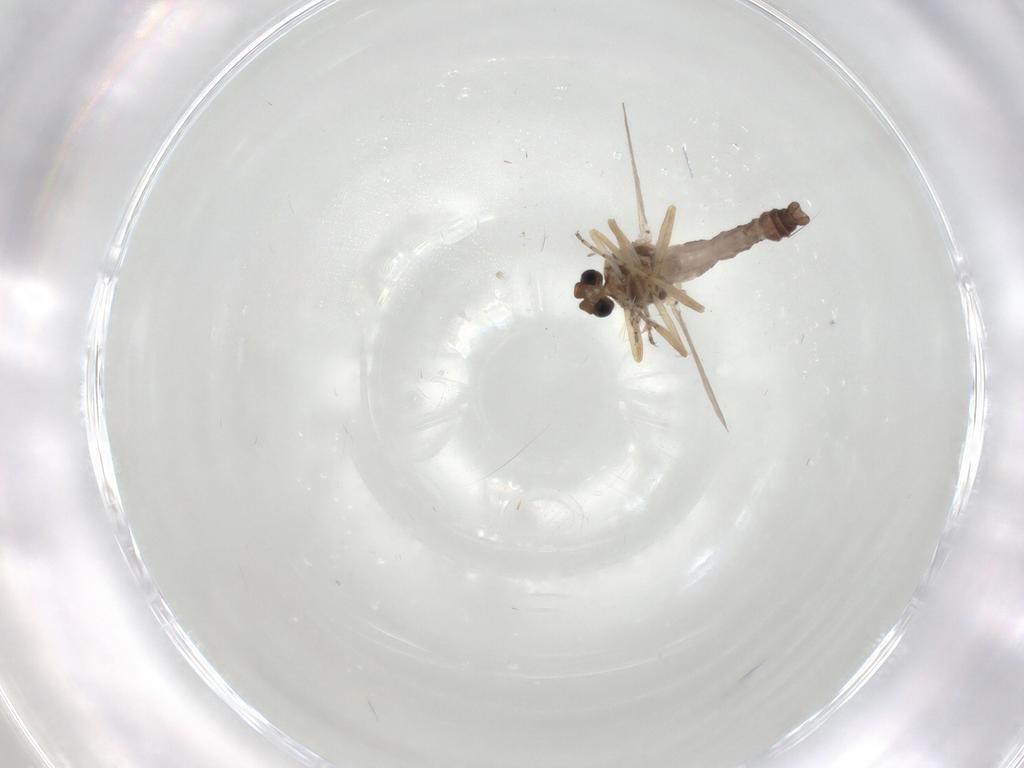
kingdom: Animalia
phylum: Arthropoda
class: Insecta
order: Diptera
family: Ceratopogonidae
